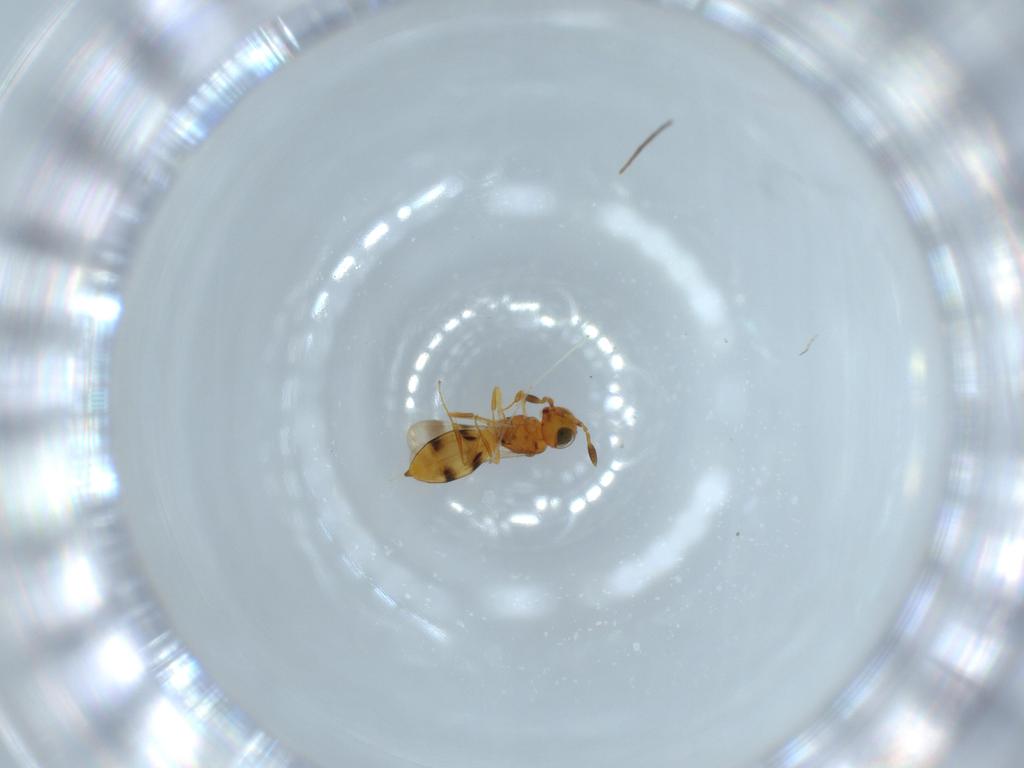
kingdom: Animalia
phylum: Arthropoda
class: Insecta
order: Hymenoptera
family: Scelionidae
